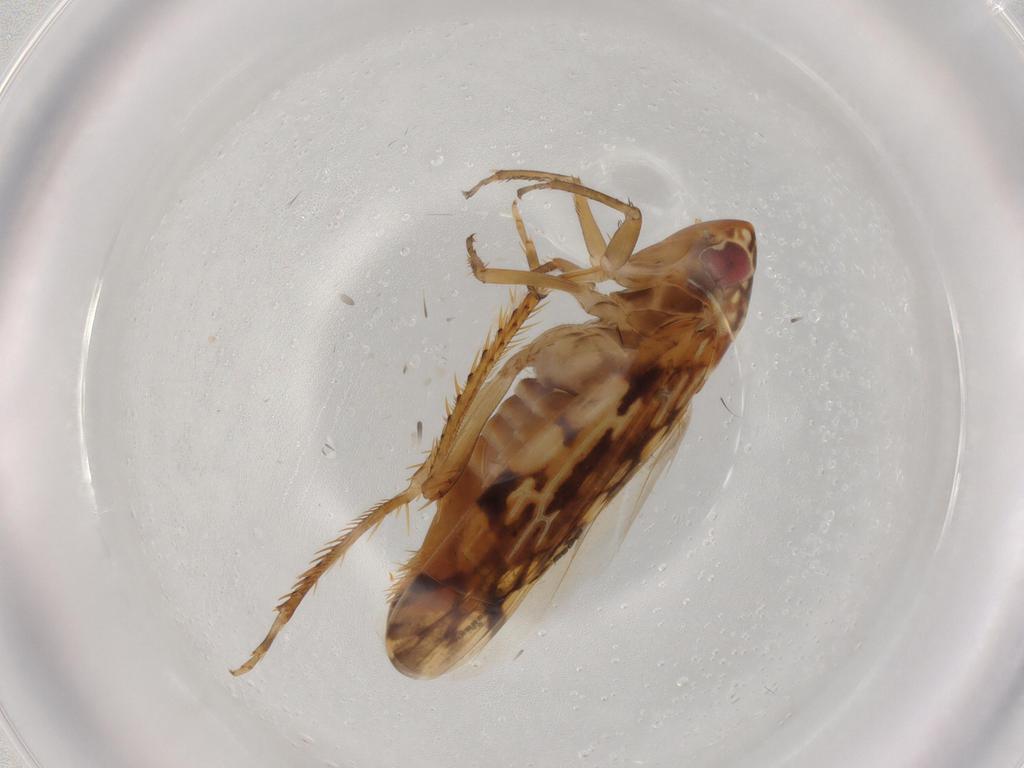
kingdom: Animalia
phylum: Arthropoda
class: Insecta
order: Hemiptera
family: Cicadellidae
